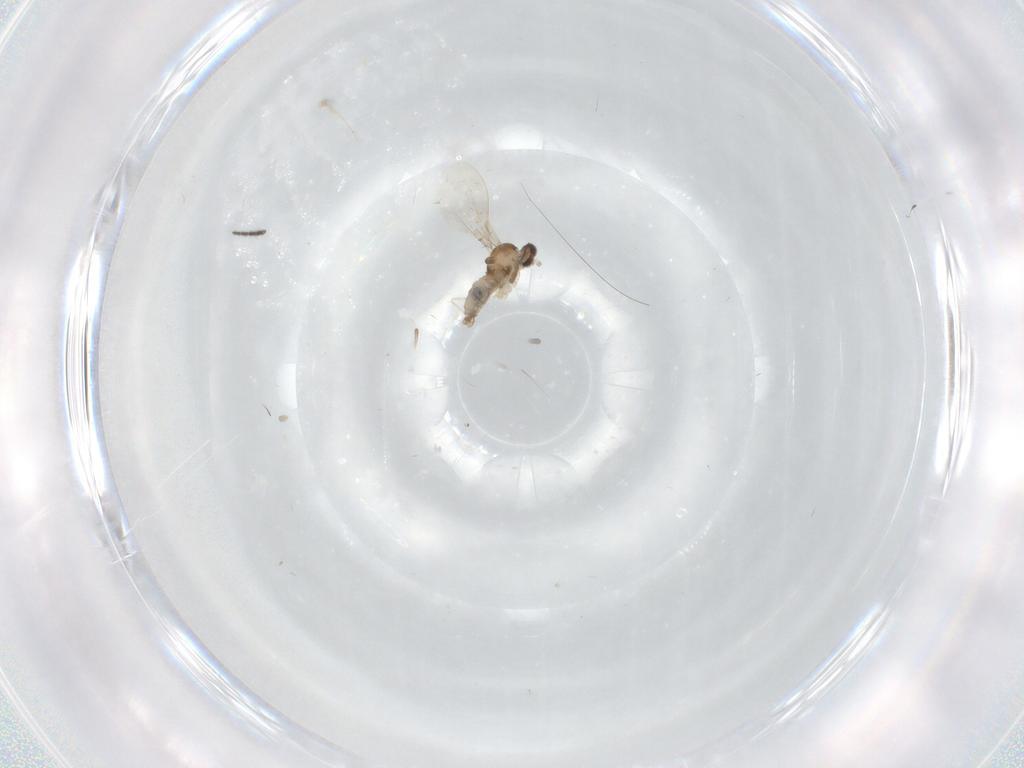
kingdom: Animalia
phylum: Arthropoda
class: Insecta
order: Diptera
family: Cecidomyiidae
